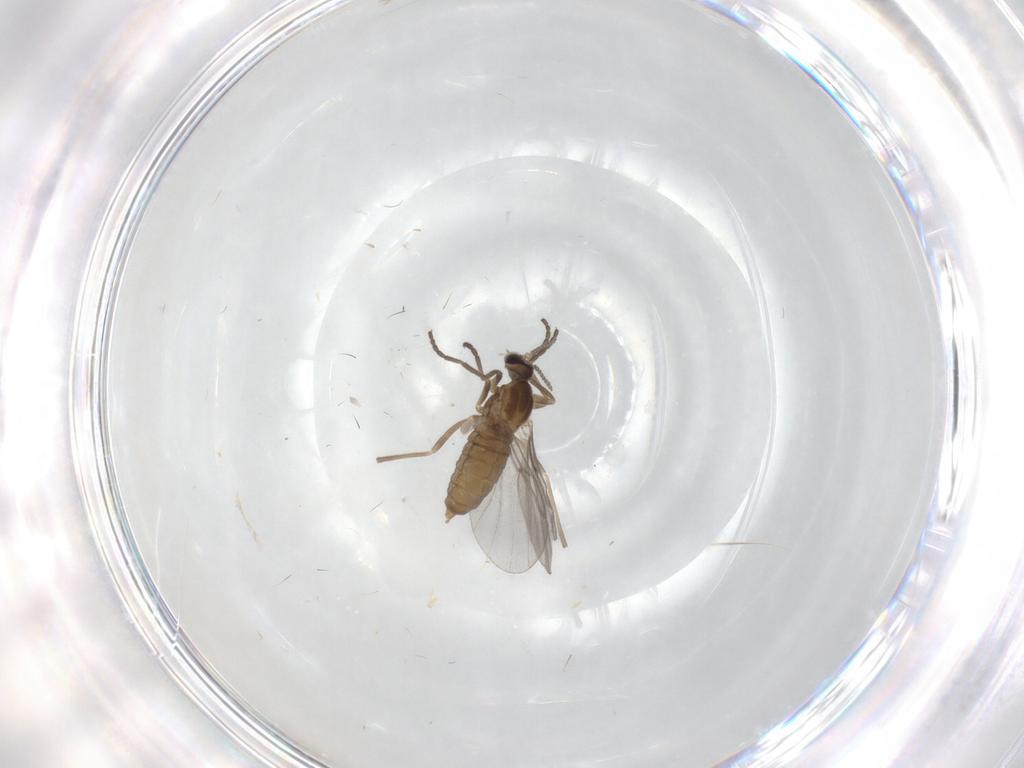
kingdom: Animalia
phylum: Arthropoda
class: Insecta
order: Diptera
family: Cecidomyiidae
